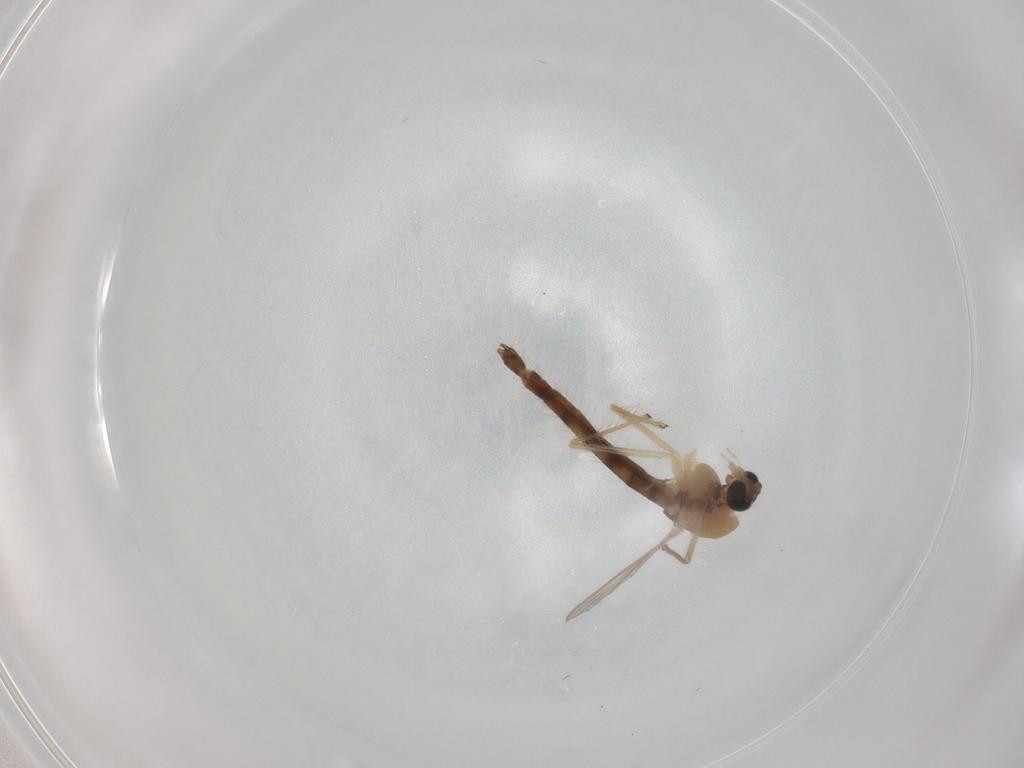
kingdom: Animalia
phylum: Arthropoda
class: Insecta
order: Diptera
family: Chironomidae
